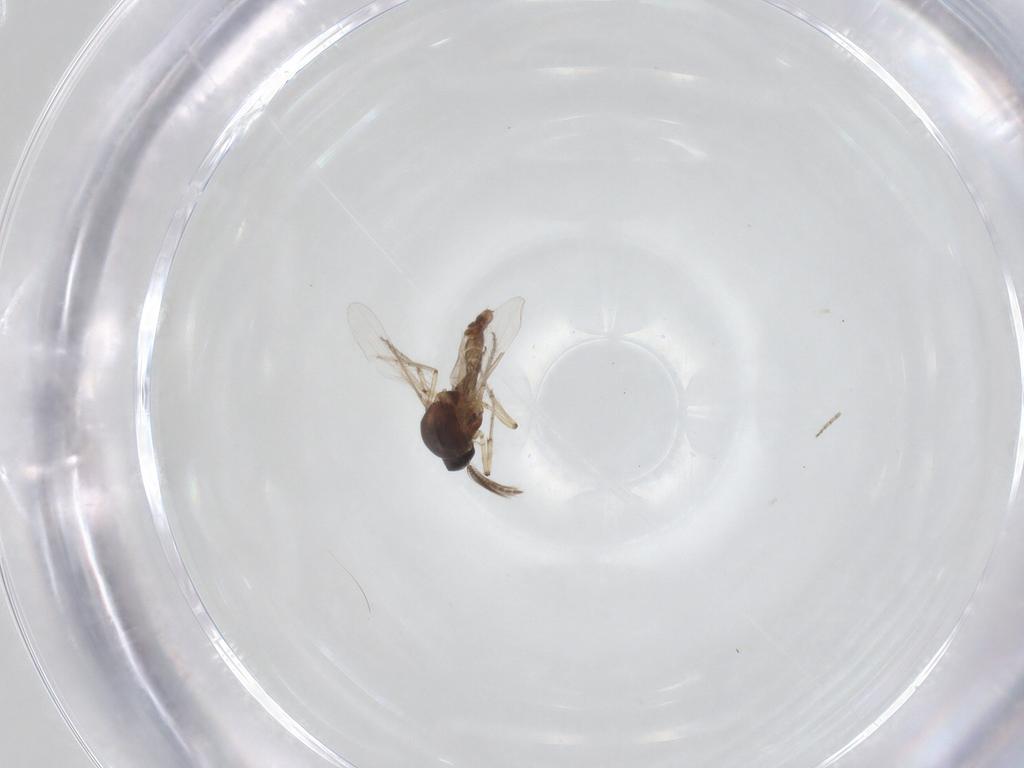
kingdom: Animalia
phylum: Arthropoda
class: Insecta
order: Diptera
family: Ceratopogonidae
